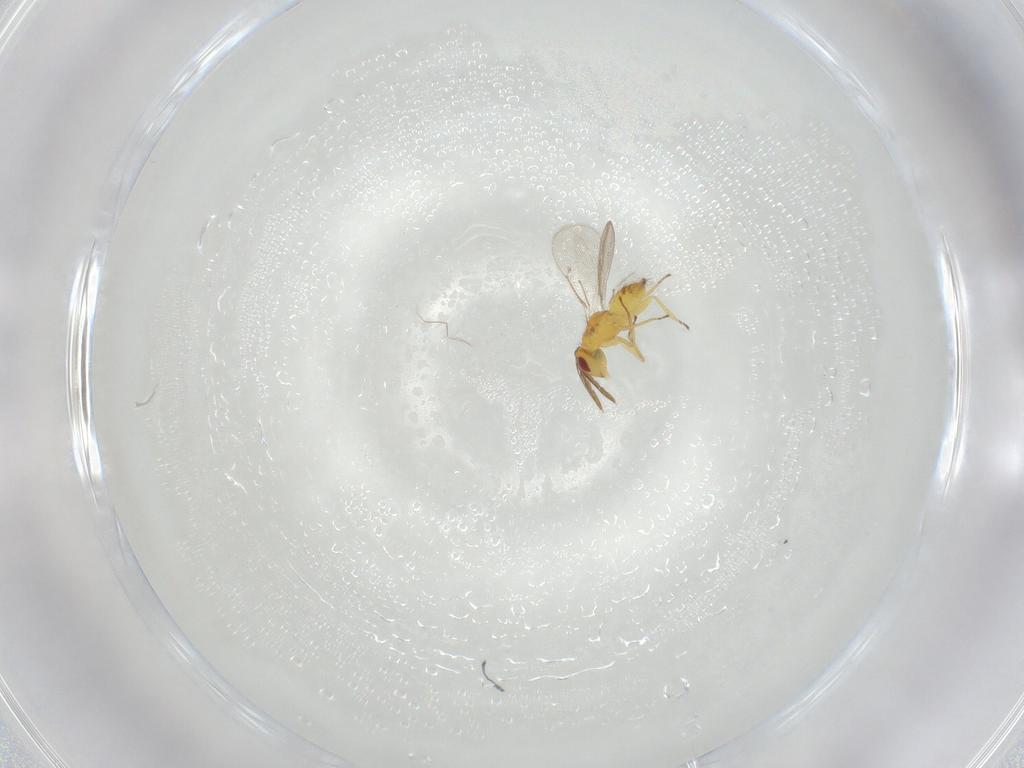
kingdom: Animalia
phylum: Arthropoda
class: Insecta
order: Hymenoptera
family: Eulophidae
